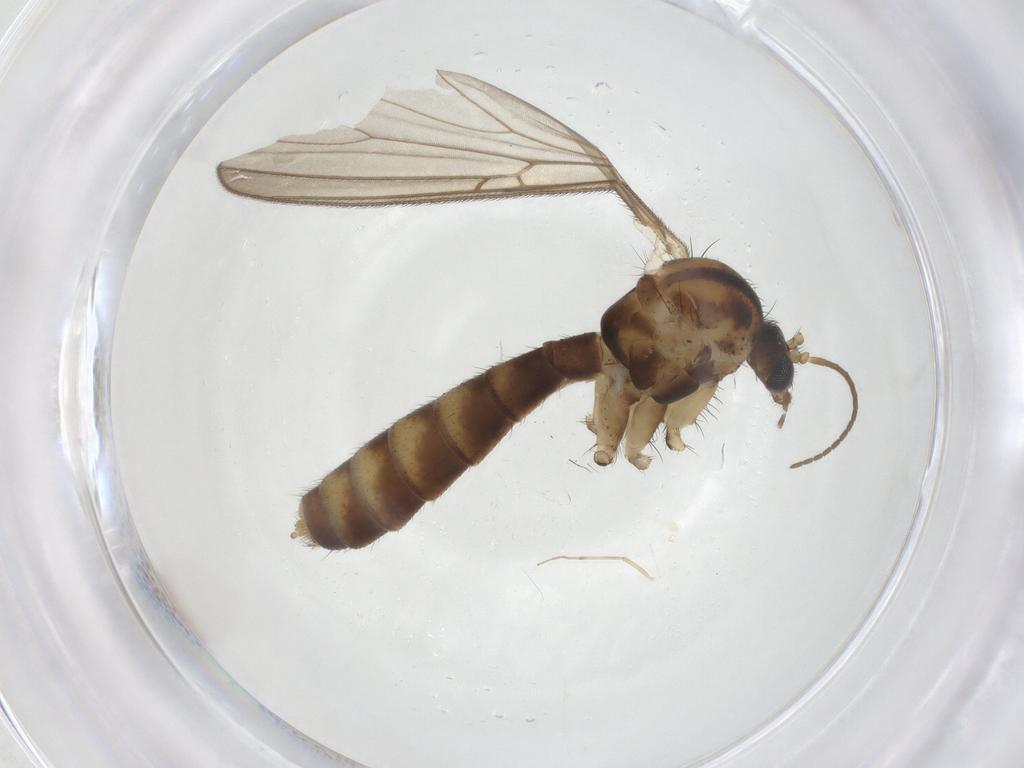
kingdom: Animalia
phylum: Arthropoda
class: Insecta
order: Diptera
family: Mycetophilidae
